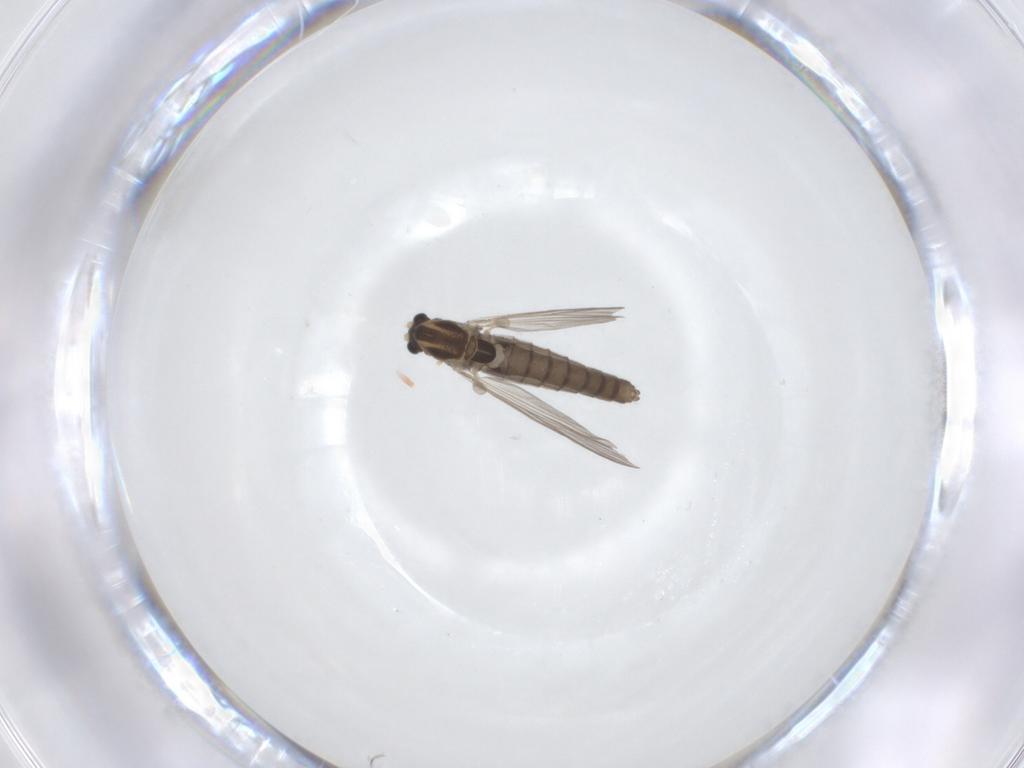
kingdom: Animalia
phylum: Arthropoda
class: Insecta
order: Diptera
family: Chironomidae
